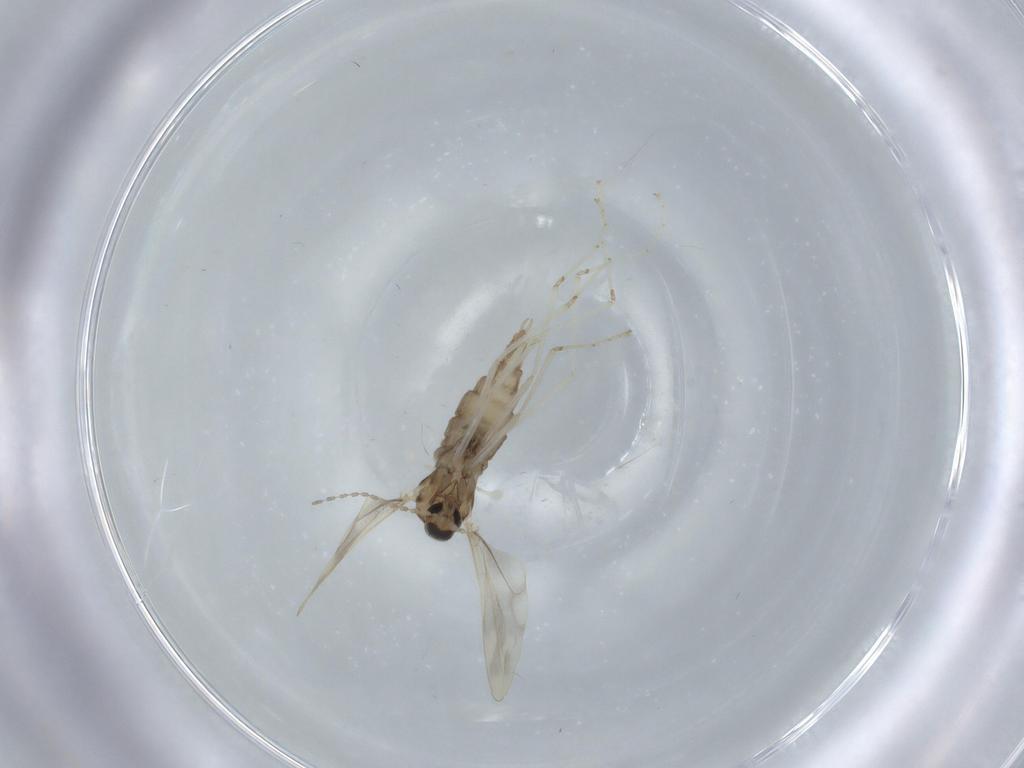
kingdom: Animalia
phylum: Arthropoda
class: Insecta
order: Diptera
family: Cecidomyiidae
